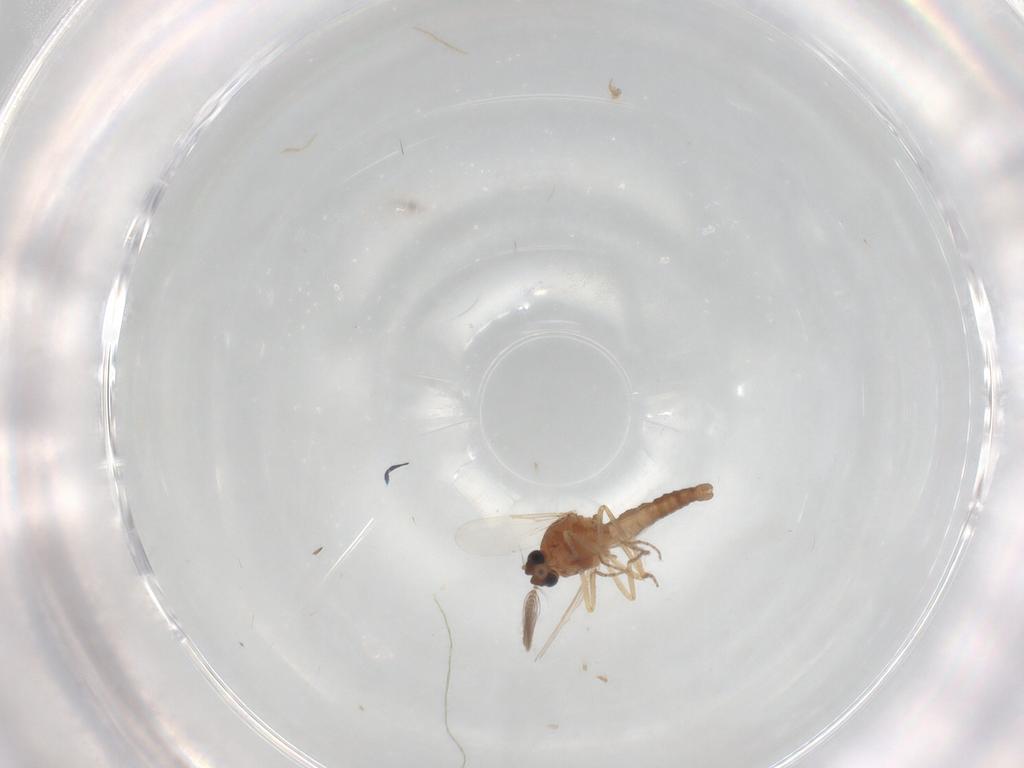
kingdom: Animalia
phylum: Arthropoda
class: Insecta
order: Diptera
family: Ceratopogonidae
